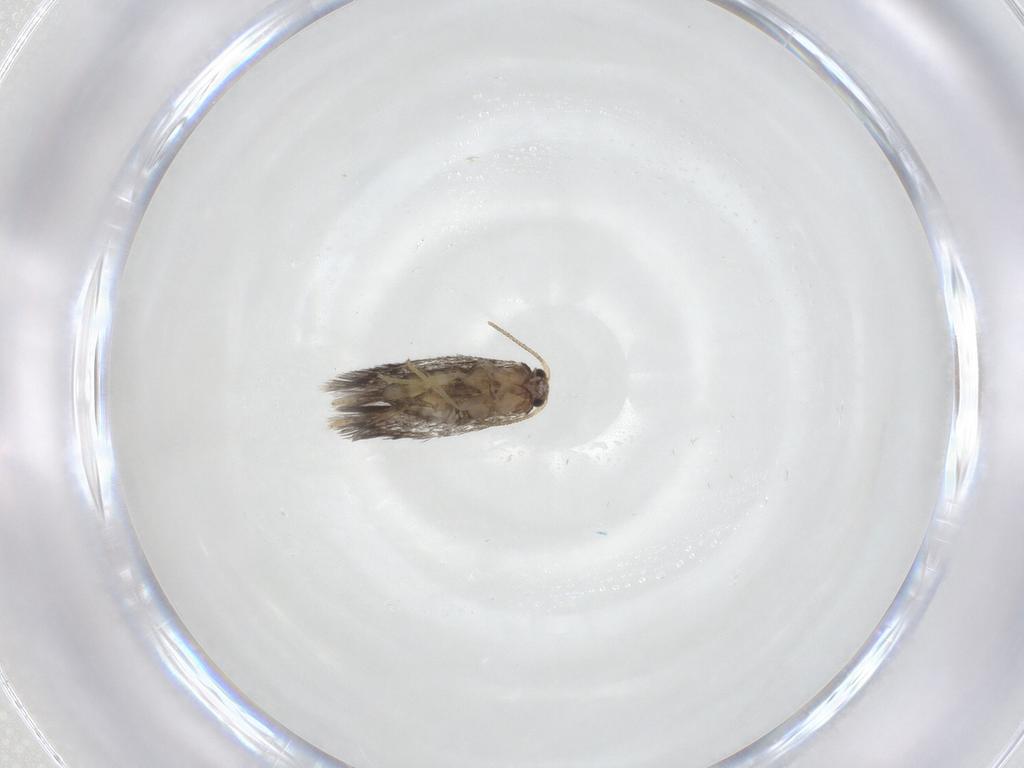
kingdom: Animalia
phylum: Arthropoda
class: Insecta
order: Lepidoptera
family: Nepticulidae
